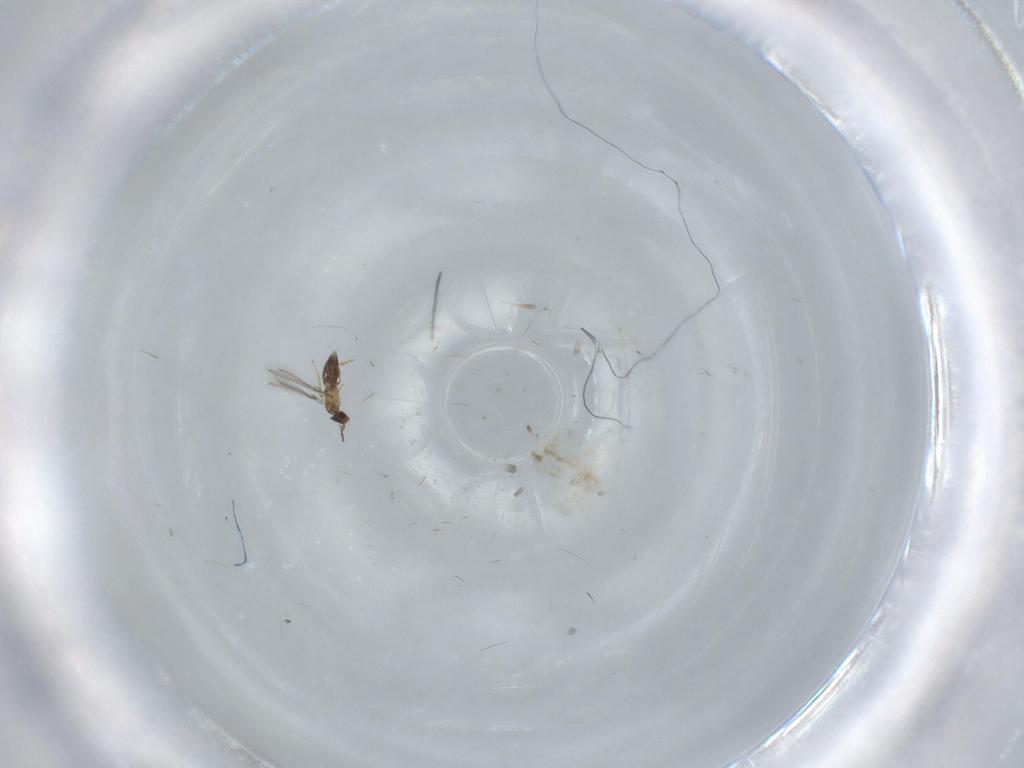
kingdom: Animalia
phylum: Arthropoda
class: Insecta
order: Hymenoptera
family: Mymaridae
